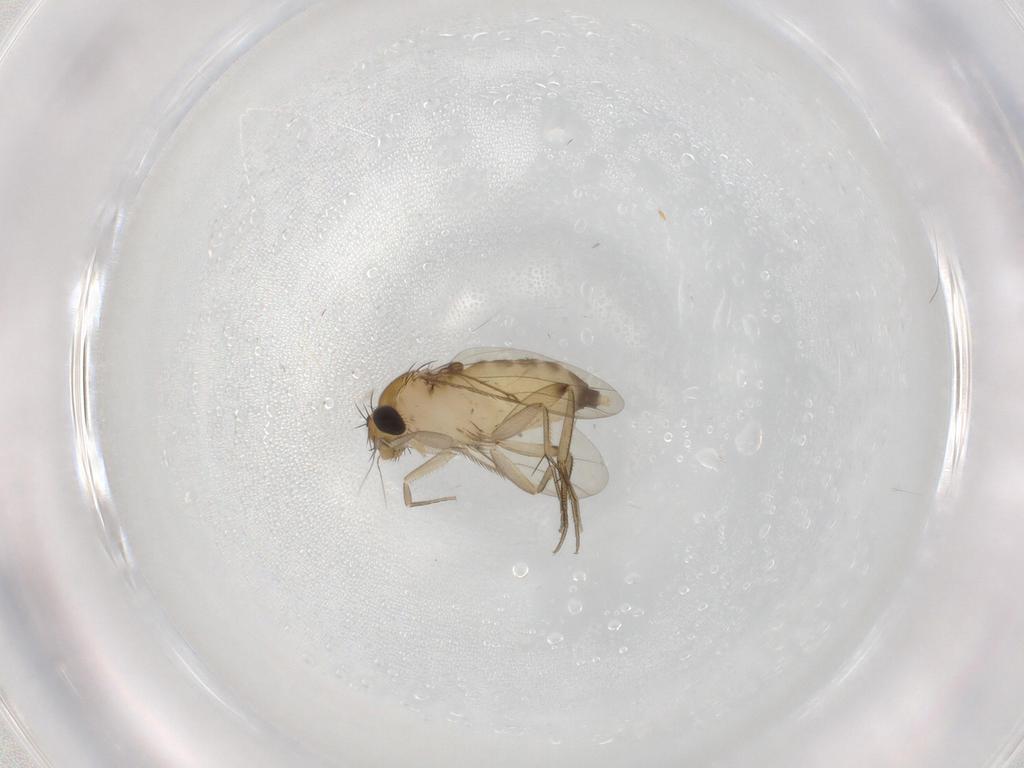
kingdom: Animalia
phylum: Arthropoda
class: Insecta
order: Diptera
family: Phoridae
